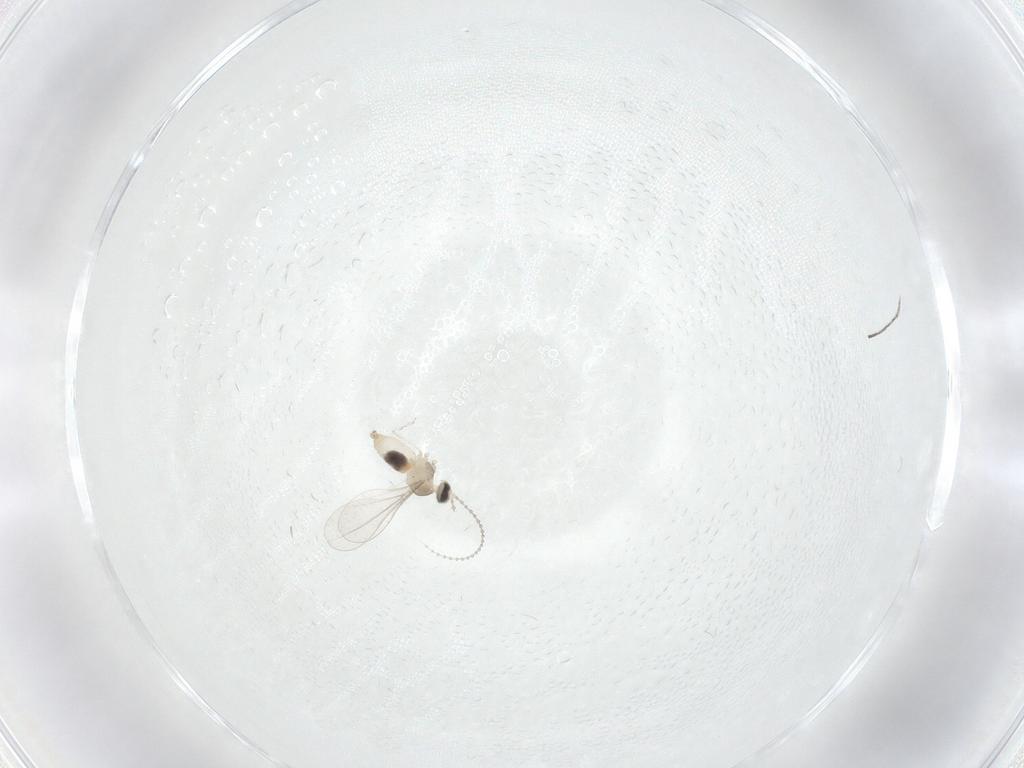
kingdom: Animalia
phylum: Arthropoda
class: Insecta
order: Diptera
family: Cecidomyiidae
